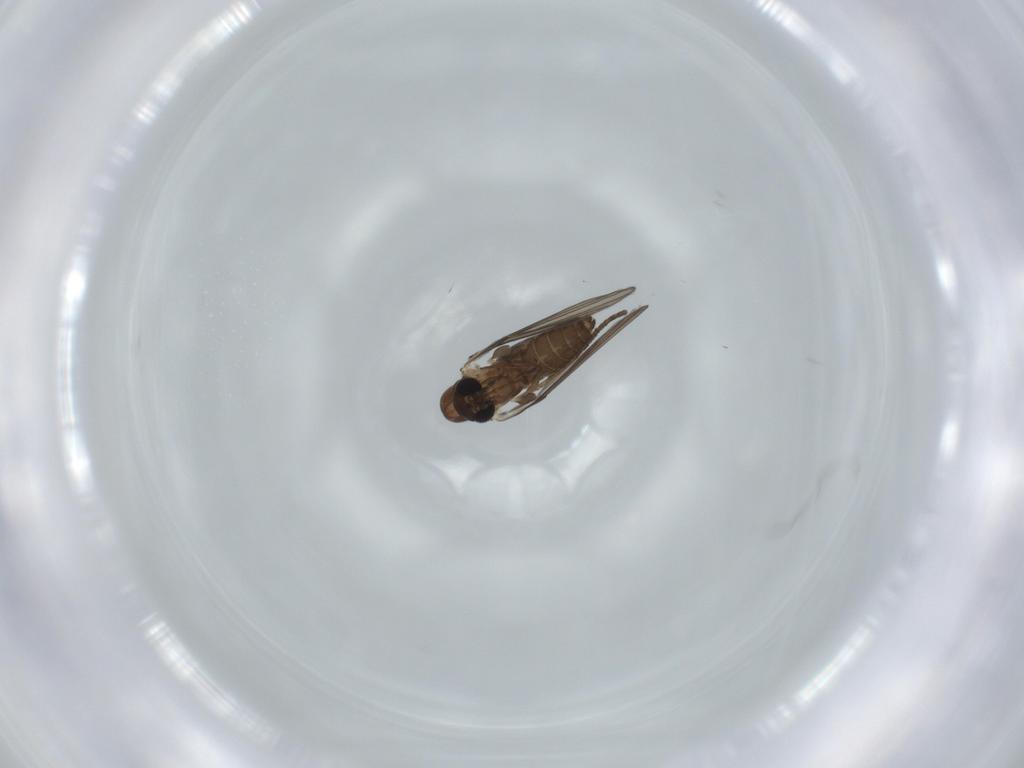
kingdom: Animalia
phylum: Arthropoda
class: Insecta
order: Diptera
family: Psychodidae
